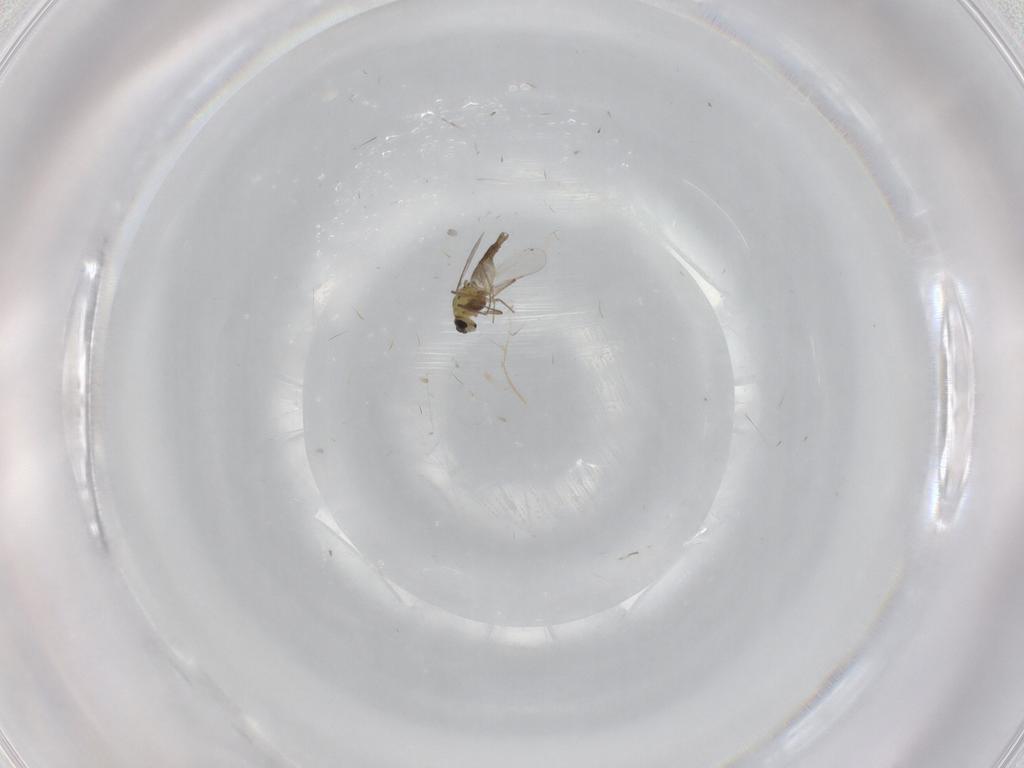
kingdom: Animalia
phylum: Arthropoda
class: Insecta
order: Diptera
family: Chironomidae
